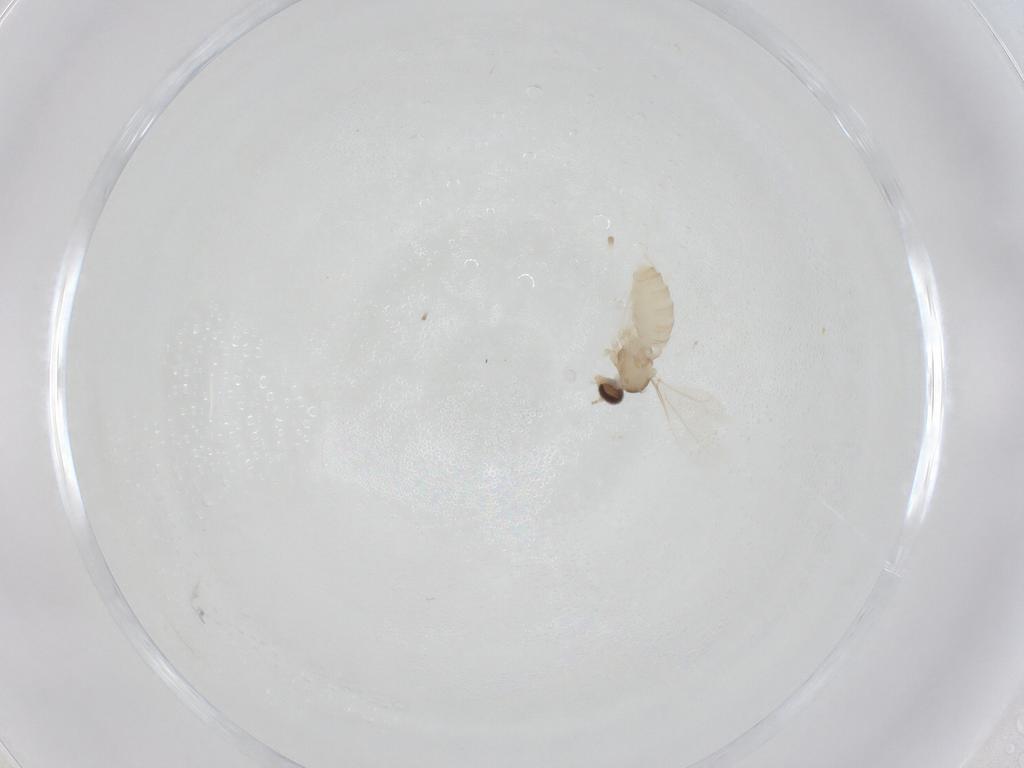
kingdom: Animalia
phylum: Arthropoda
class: Insecta
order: Diptera
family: Cecidomyiidae
